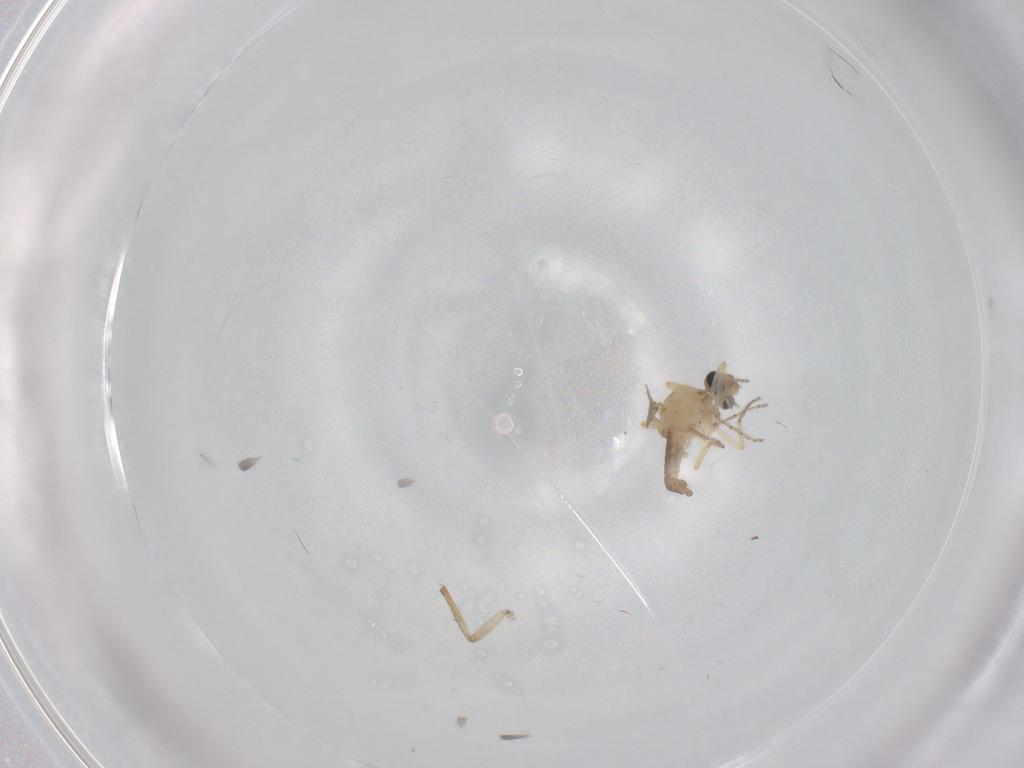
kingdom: Animalia
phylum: Arthropoda
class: Insecta
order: Diptera
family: Ceratopogonidae
